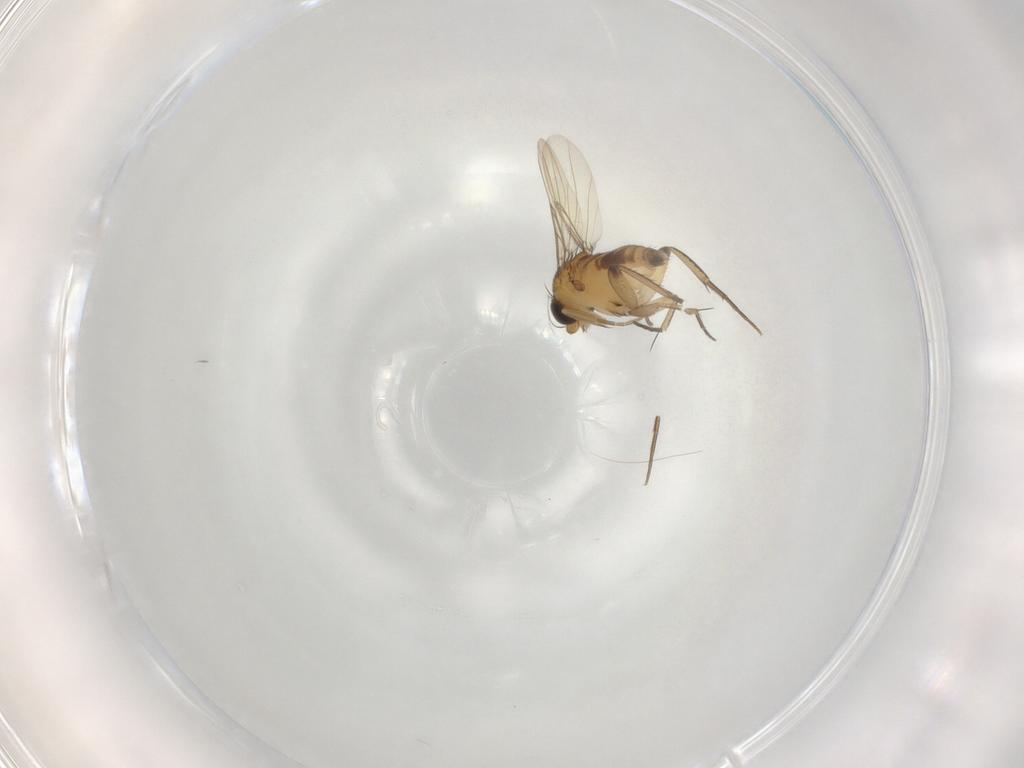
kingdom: Animalia
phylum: Arthropoda
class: Insecta
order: Diptera
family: Phoridae
